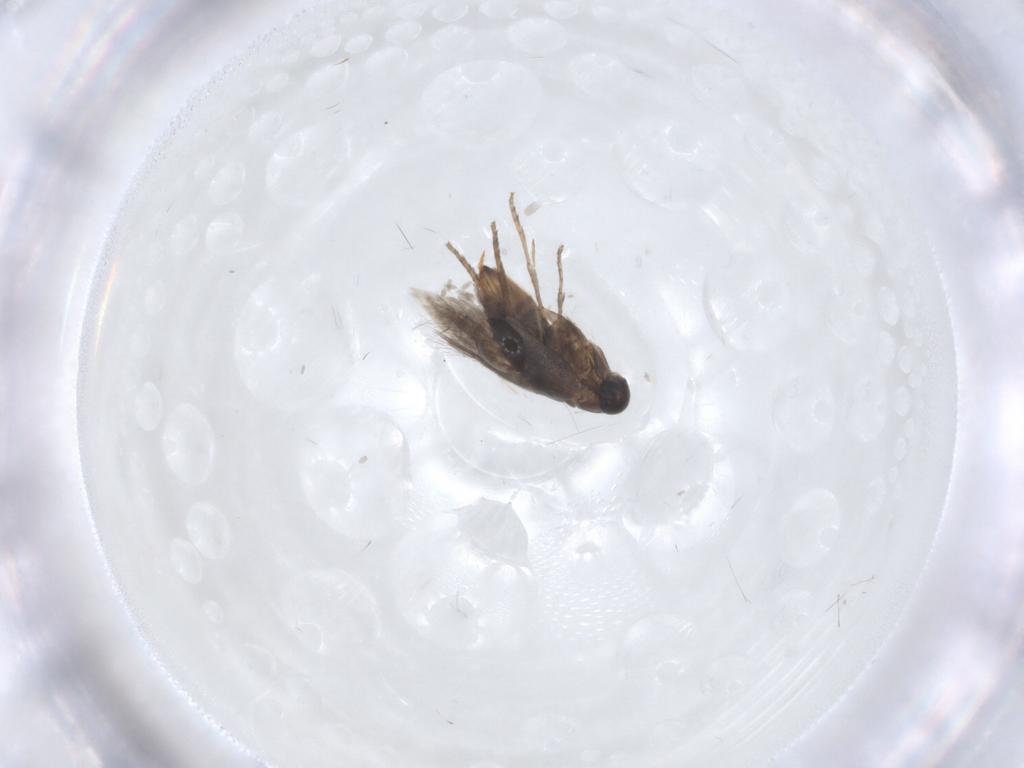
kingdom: Animalia
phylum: Arthropoda
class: Insecta
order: Lepidoptera
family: Heliozelidae
